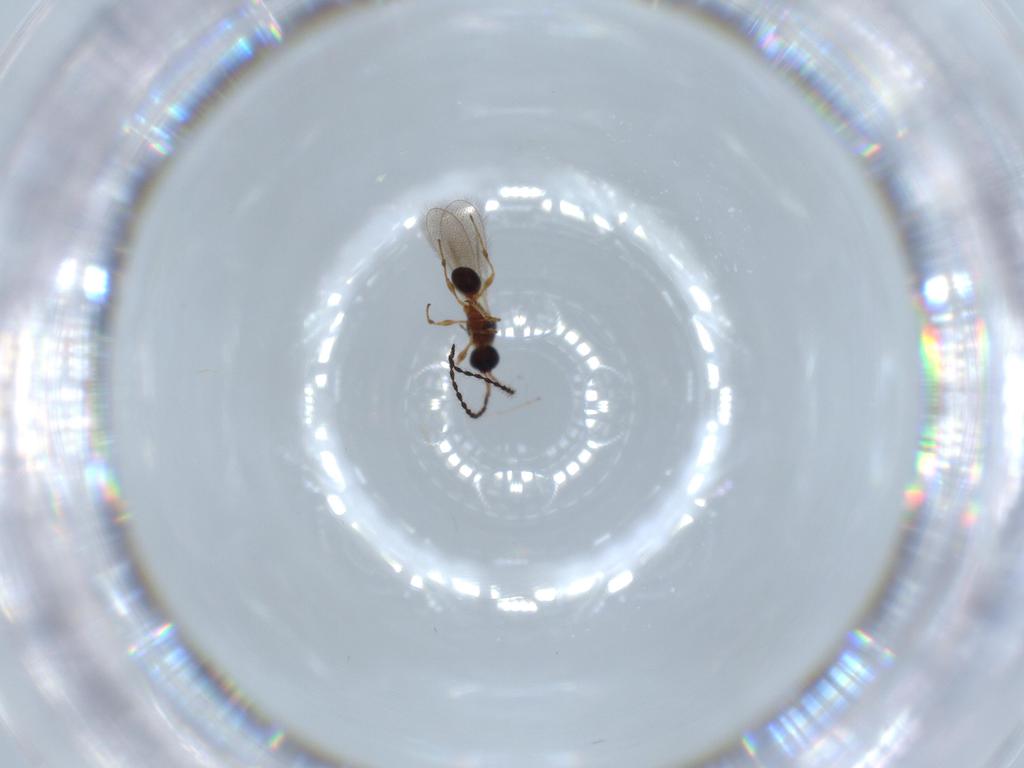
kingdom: Animalia
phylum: Arthropoda
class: Insecta
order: Hymenoptera
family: Diapriidae
